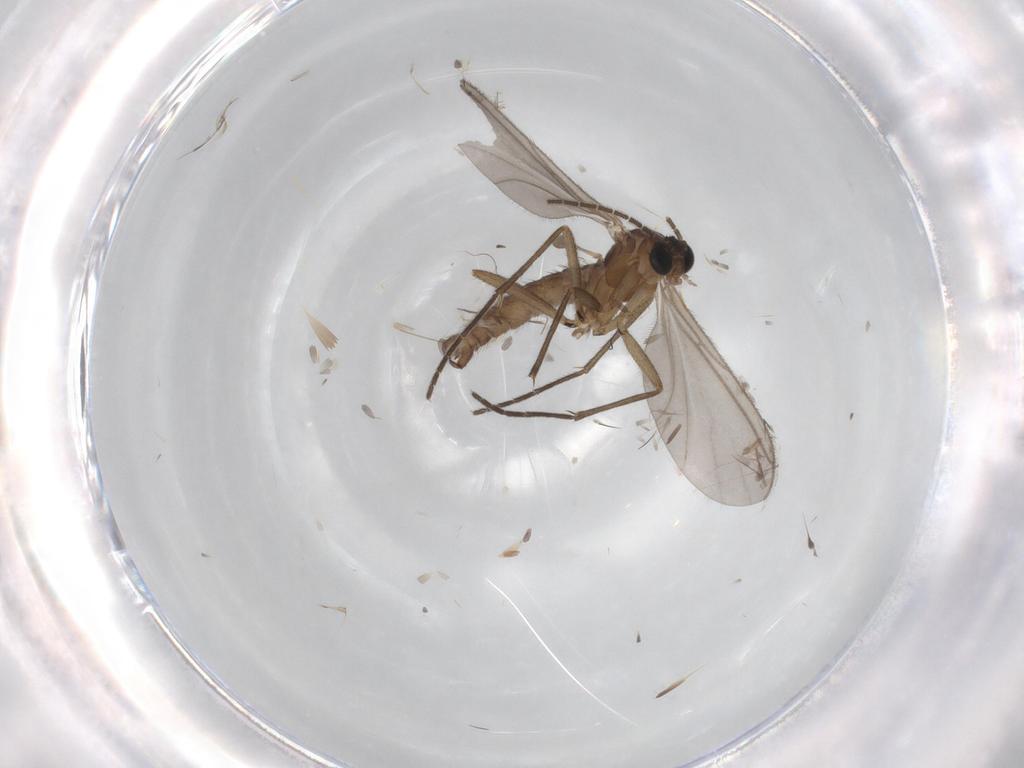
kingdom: Animalia
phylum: Arthropoda
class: Insecta
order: Diptera
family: Sciaridae
